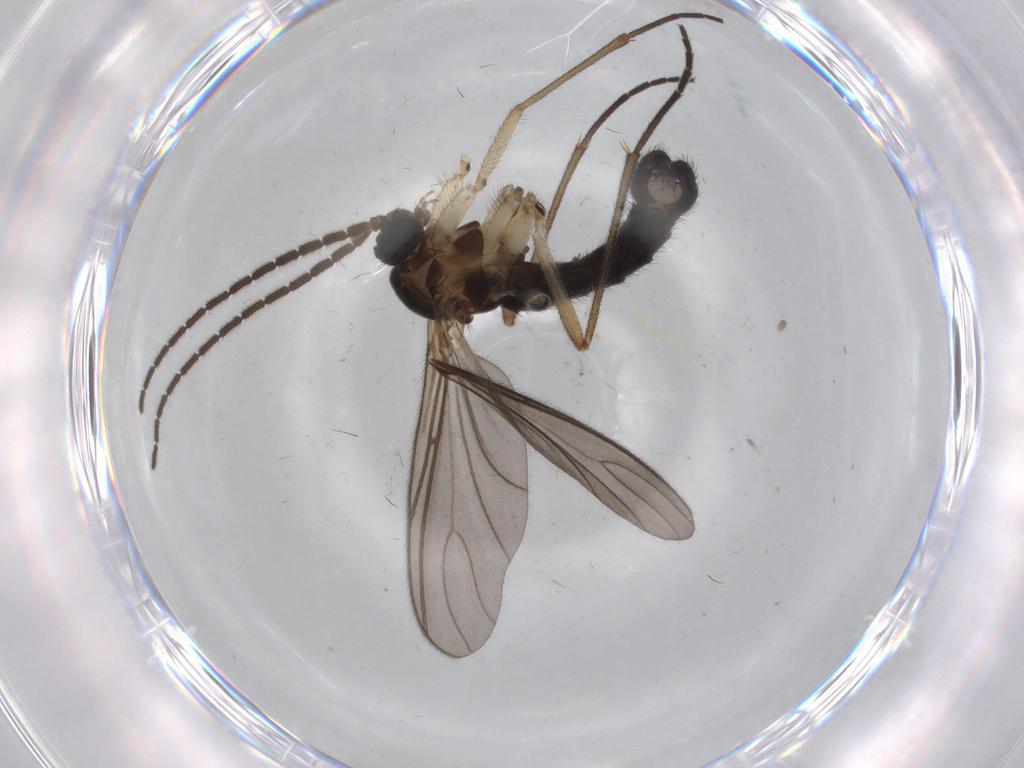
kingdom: Animalia
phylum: Arthropoda
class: Insecta
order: Diptera
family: Sciaridae
